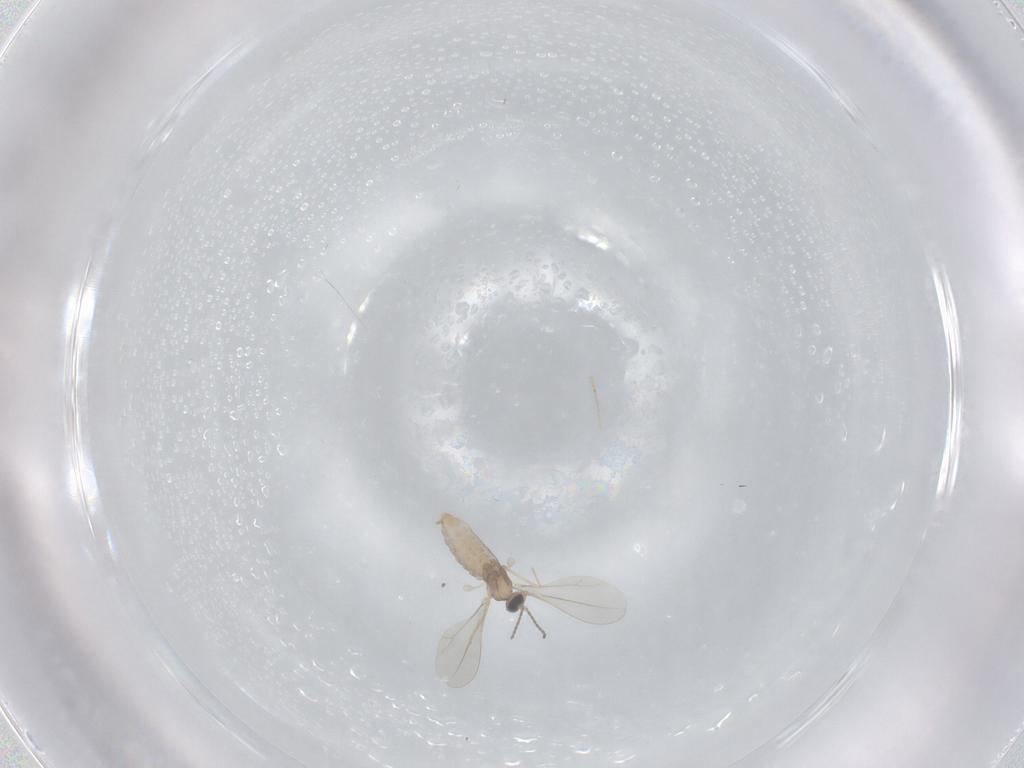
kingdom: Animalia
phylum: Arthropoda
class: Insecta
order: Diptera
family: Cecidomyiidae
